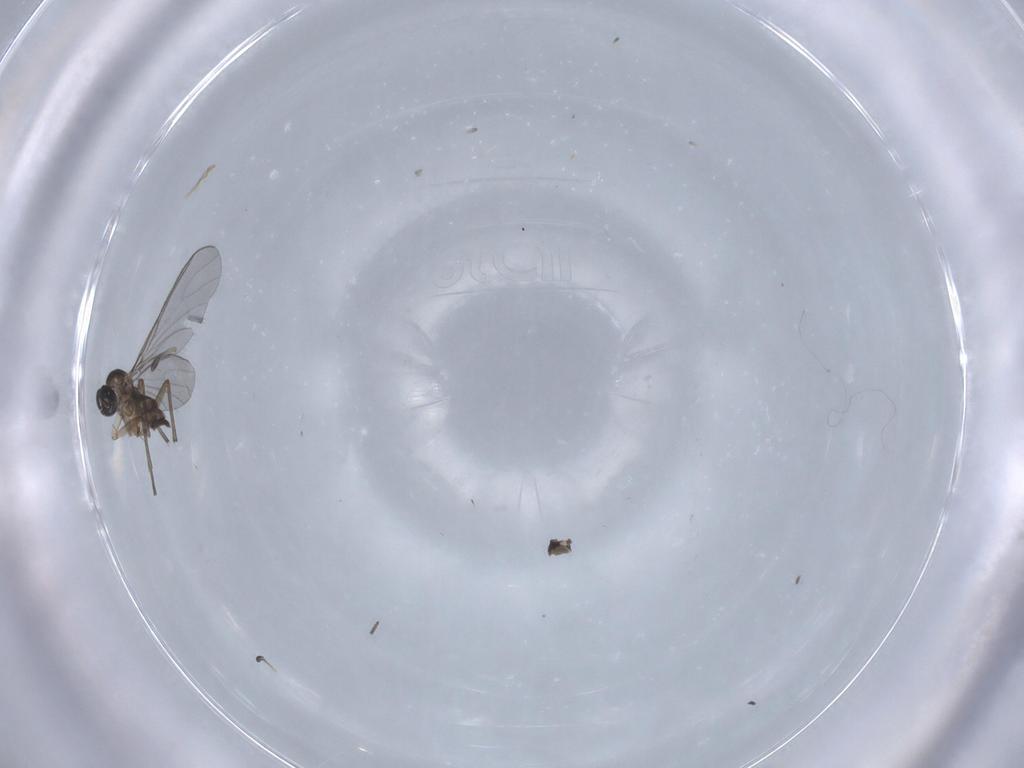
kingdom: Animalia
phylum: Arthropoda
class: Insecta
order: Diptera
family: Sciaridae
